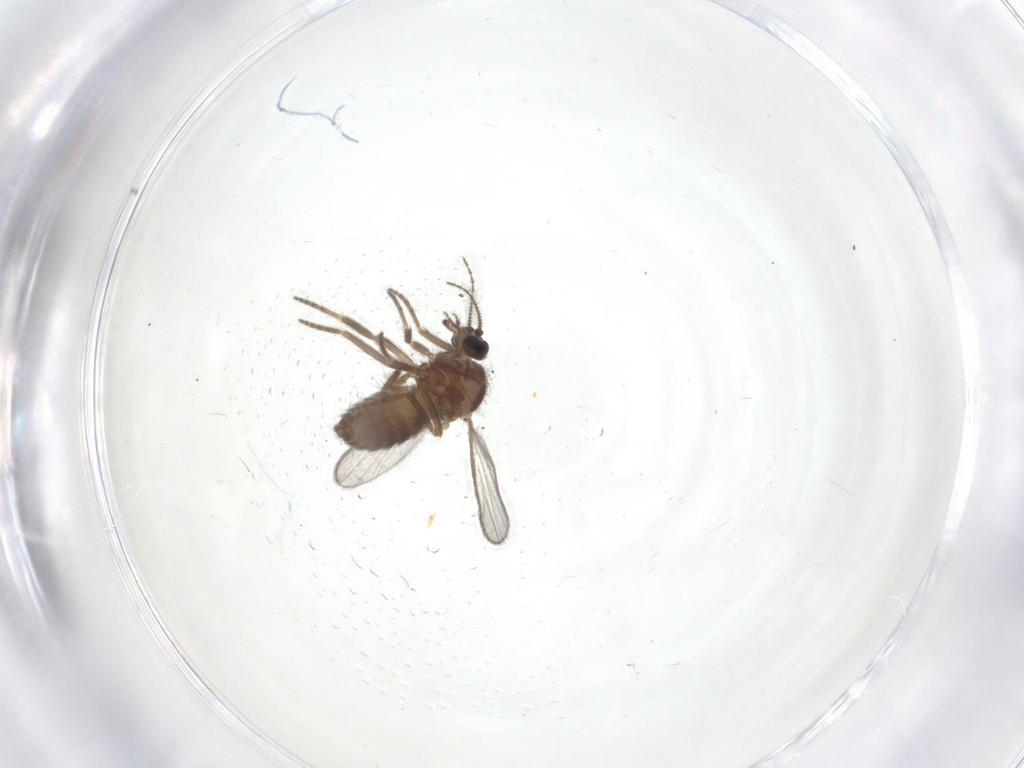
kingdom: Animalia
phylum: Arthropoda
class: Insecta
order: Diptera
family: Ceratopogonidae
